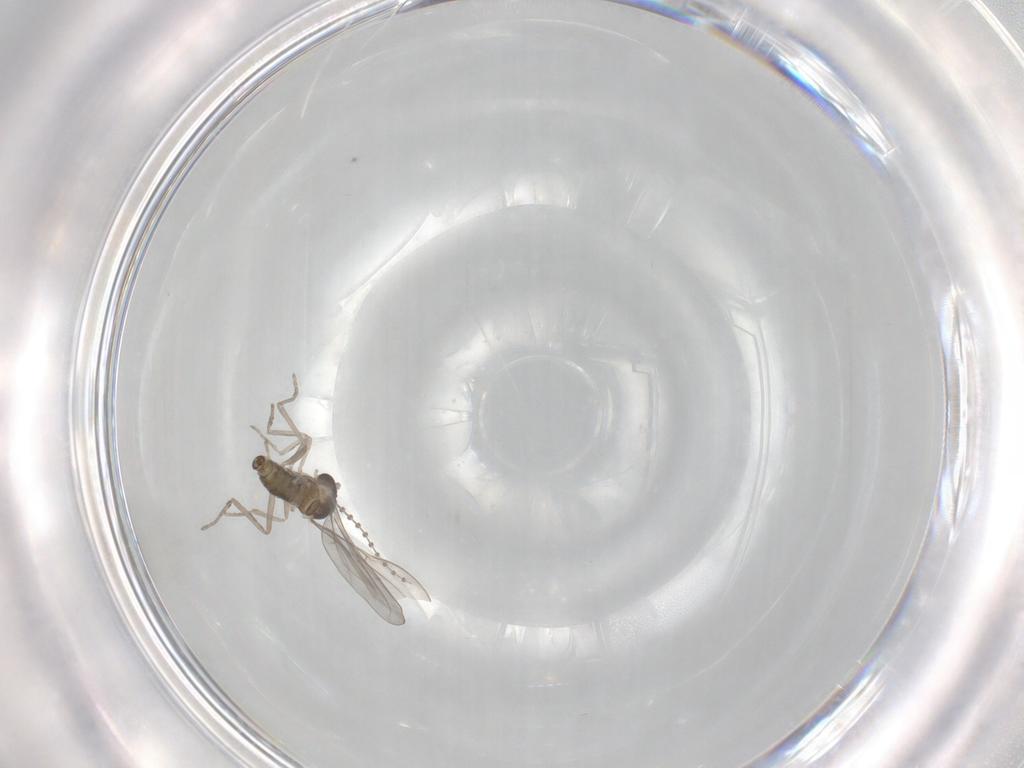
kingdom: Animalia
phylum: Arthropoda
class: Insecta
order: Diptera
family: Cecidomyiidae
